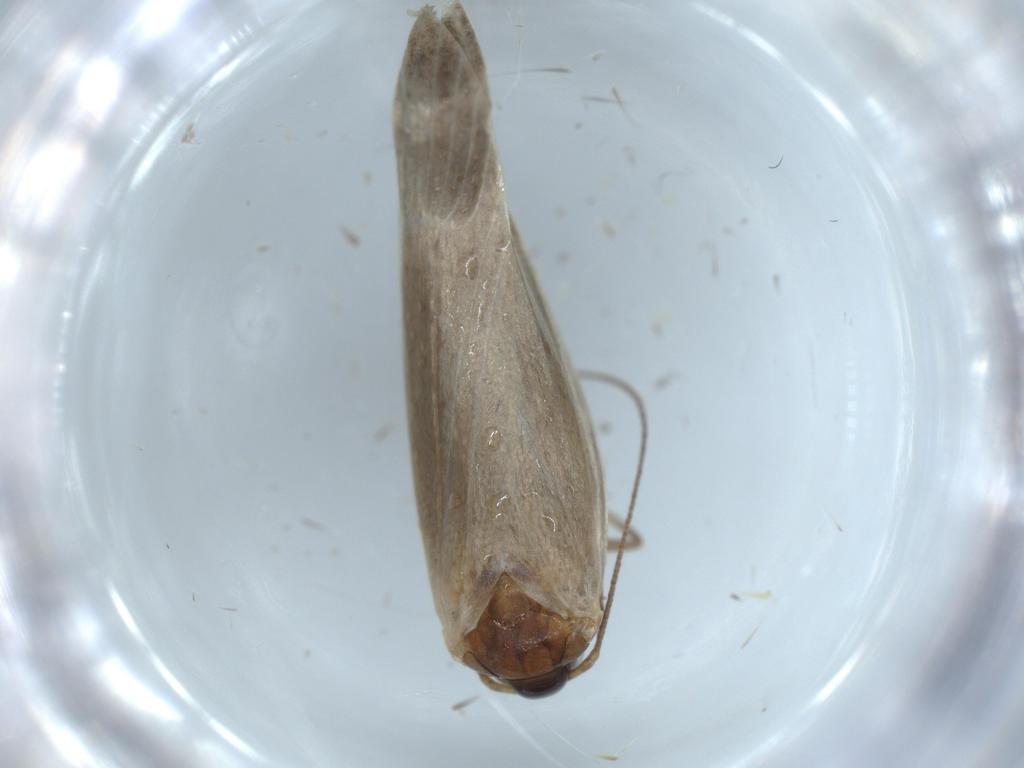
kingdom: Animalia
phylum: Arthropoda
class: Insecta
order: Lepidoptera
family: Oecophoridae
